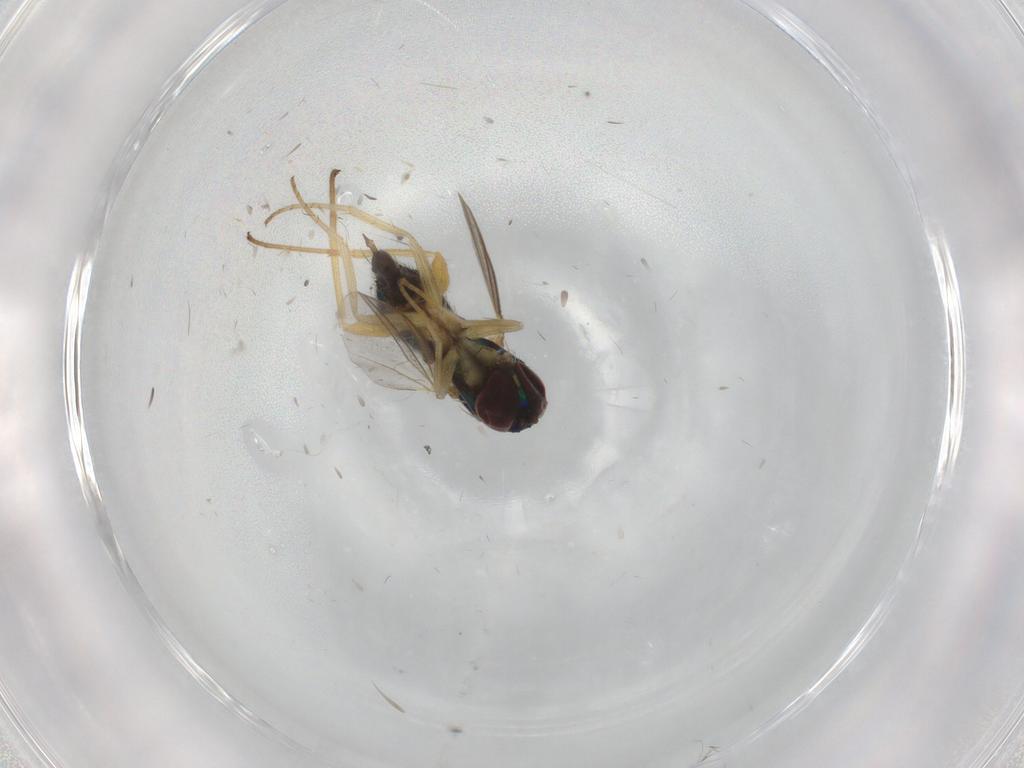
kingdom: Animalia
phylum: Arthropoda
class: Insecta
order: Diptera
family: Dolichopodidae
